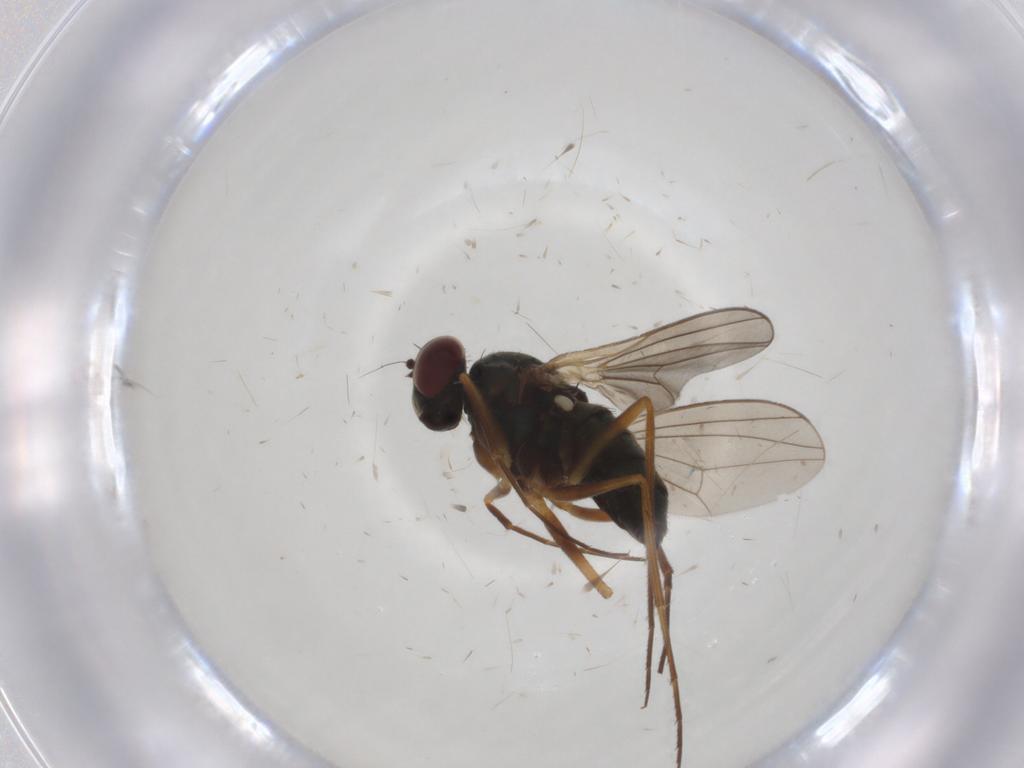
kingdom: Animalia
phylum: Arthropoda
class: Insecta
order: Diptera
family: Dolichopodidae
